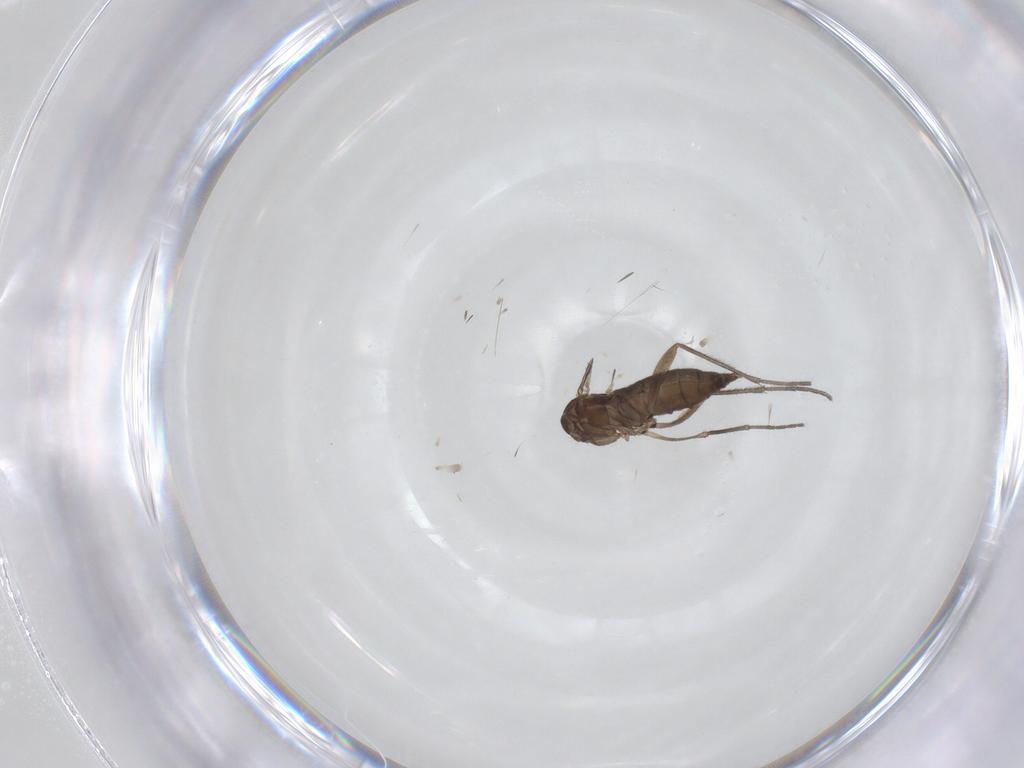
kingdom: Animalia
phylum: Arthropoda
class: Insecta
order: Diptera
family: Sciaridae
